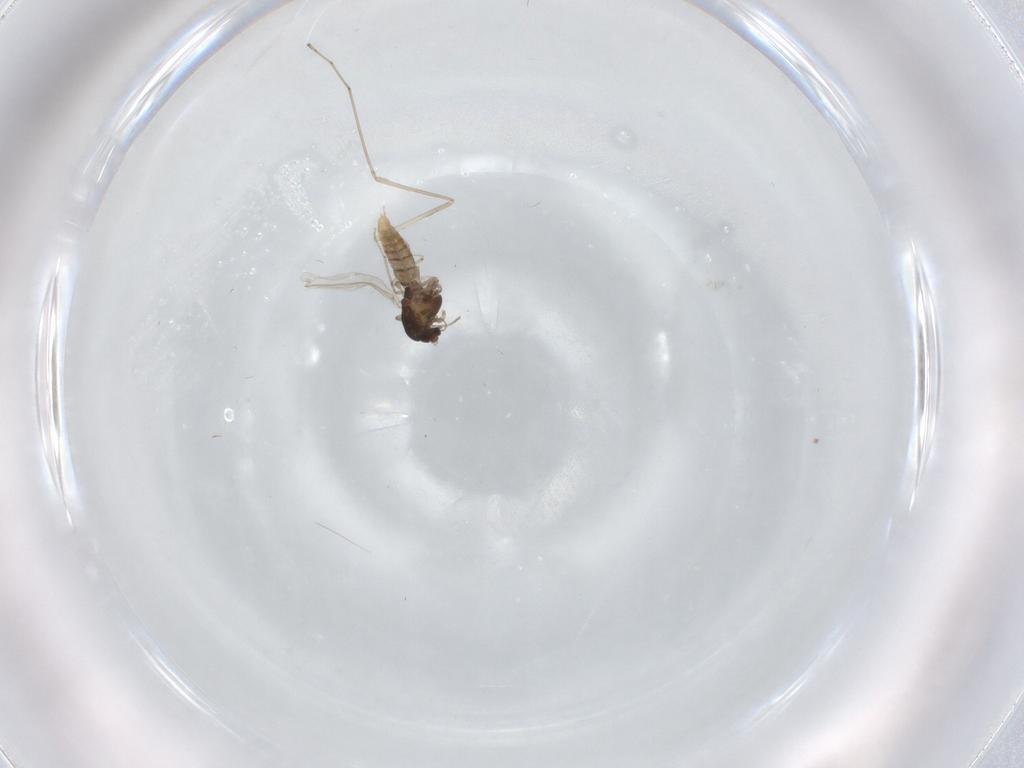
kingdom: Animalia
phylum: Arthropoda
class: Insecta
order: Diptera
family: Cecidomyiidae
